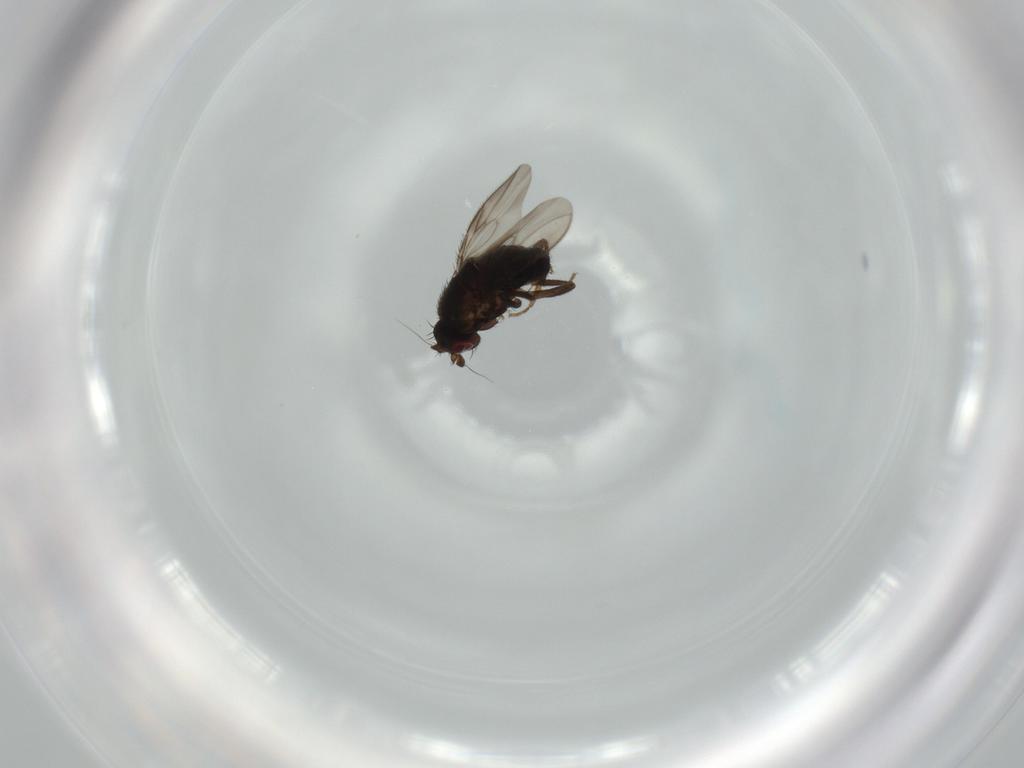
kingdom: Animalia
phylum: Arthropoda
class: Insecta
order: Diptera
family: Sphaeroceridae
